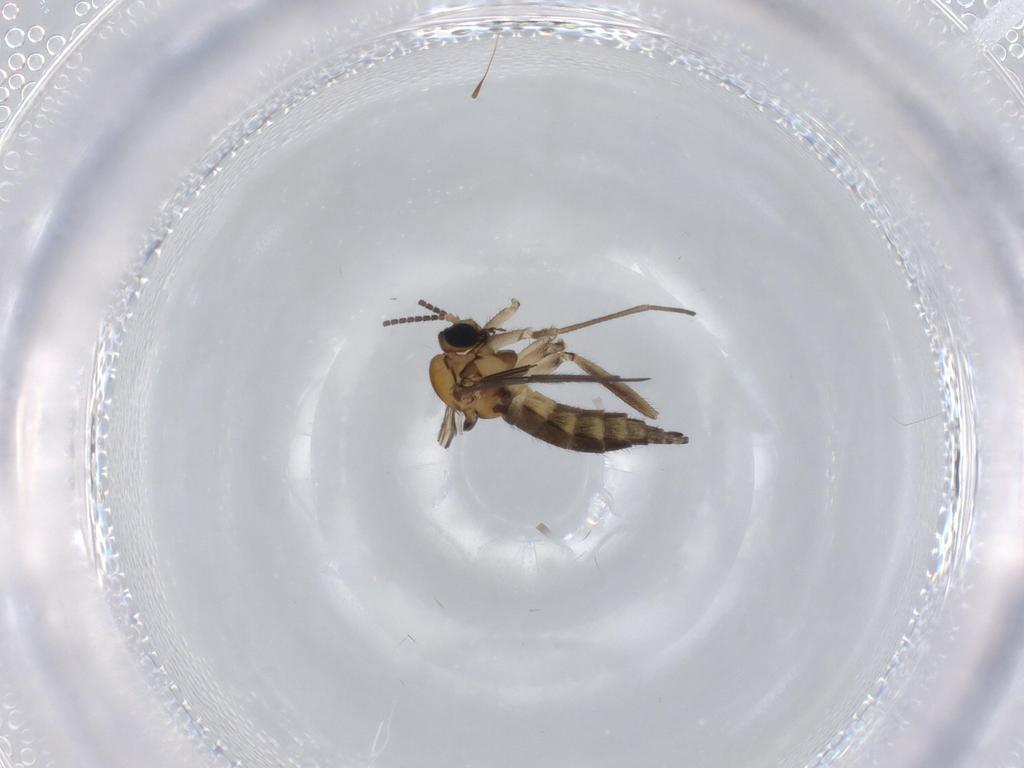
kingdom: Animalia
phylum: Arthropoda
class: Insecta
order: Diptera
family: Sciaridae
